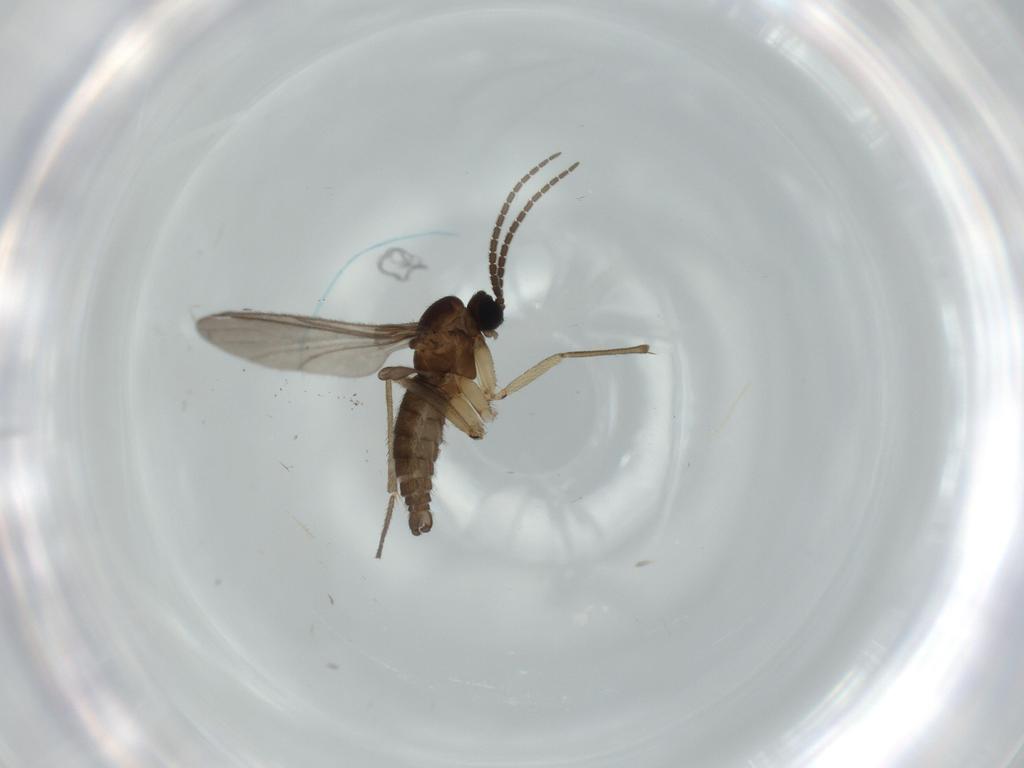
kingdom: Animalia
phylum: Arthropoda
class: Insecta
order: Diptera
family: Sciaridae
